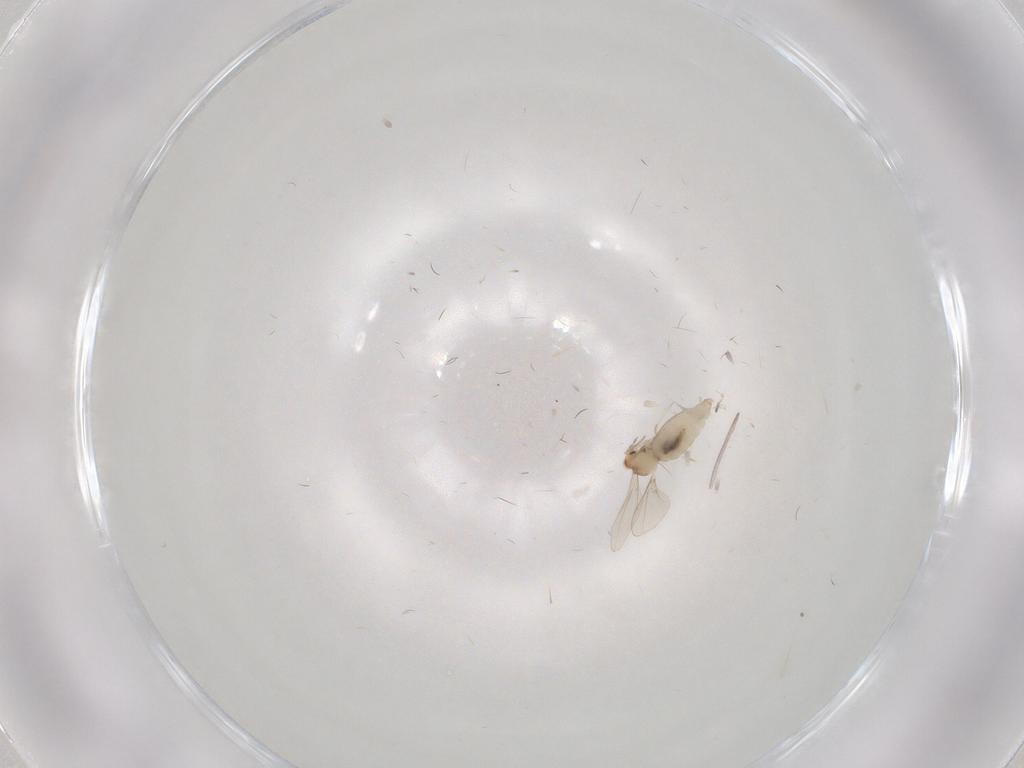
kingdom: Animalia
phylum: Arthropoda
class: Insecta
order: Diptera
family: Cecidomyiidae
